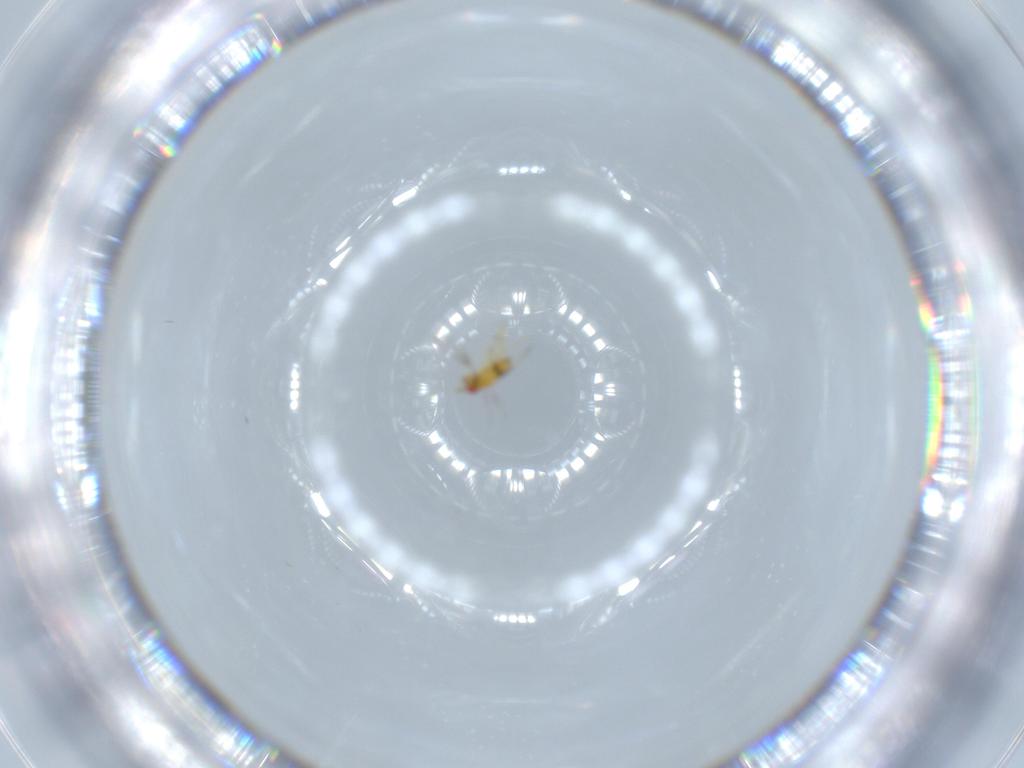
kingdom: Animalia
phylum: Arthropoda
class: Insecta
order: Hymenoptera
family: Trichogrammatidae
